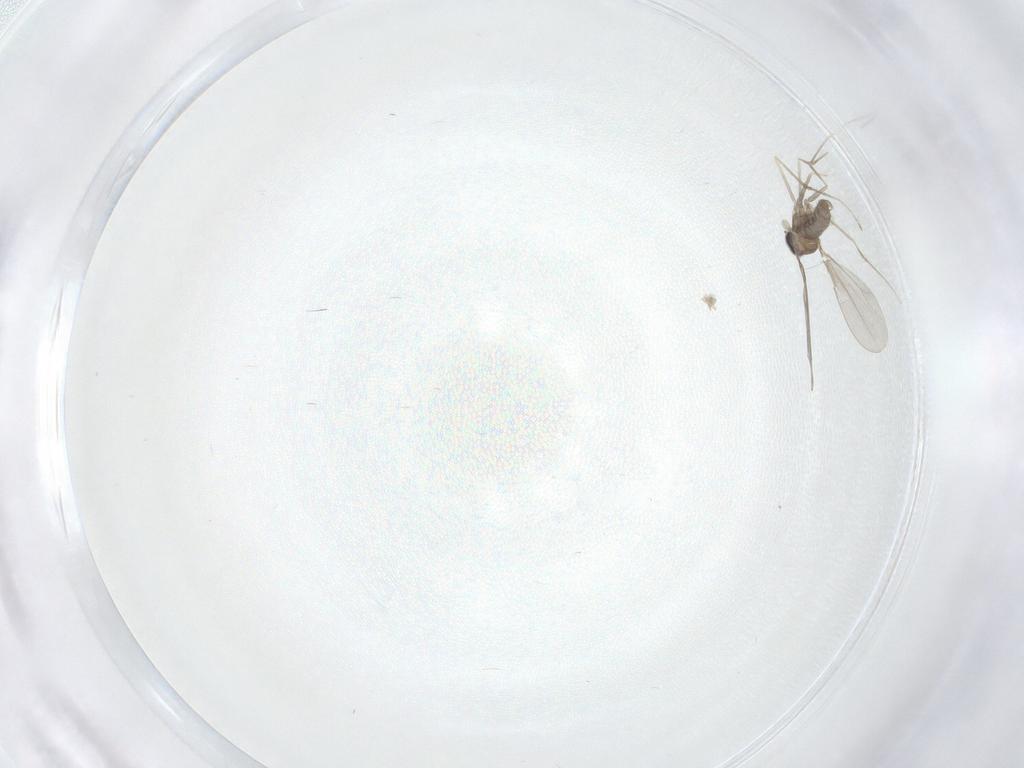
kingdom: Animalia
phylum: Arthropoda
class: Insecta
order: Diptera
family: Cecidomyiidae
